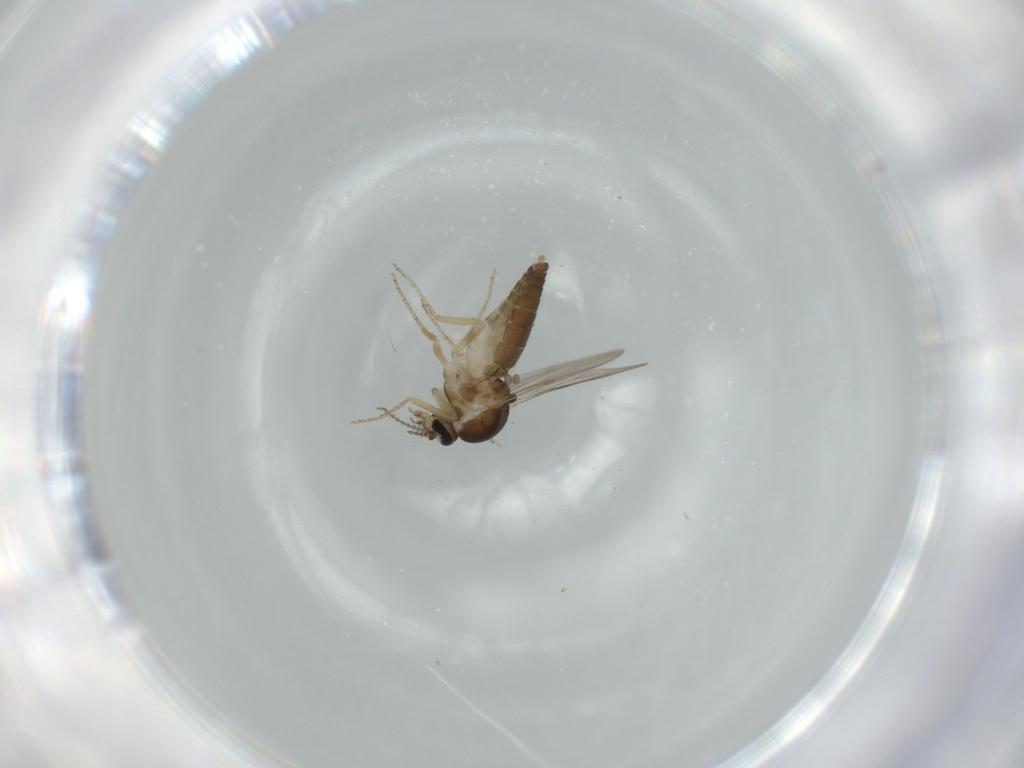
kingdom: Animalia
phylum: Arthropoda
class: Insecta
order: Diptera
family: Ceratopogonidae
